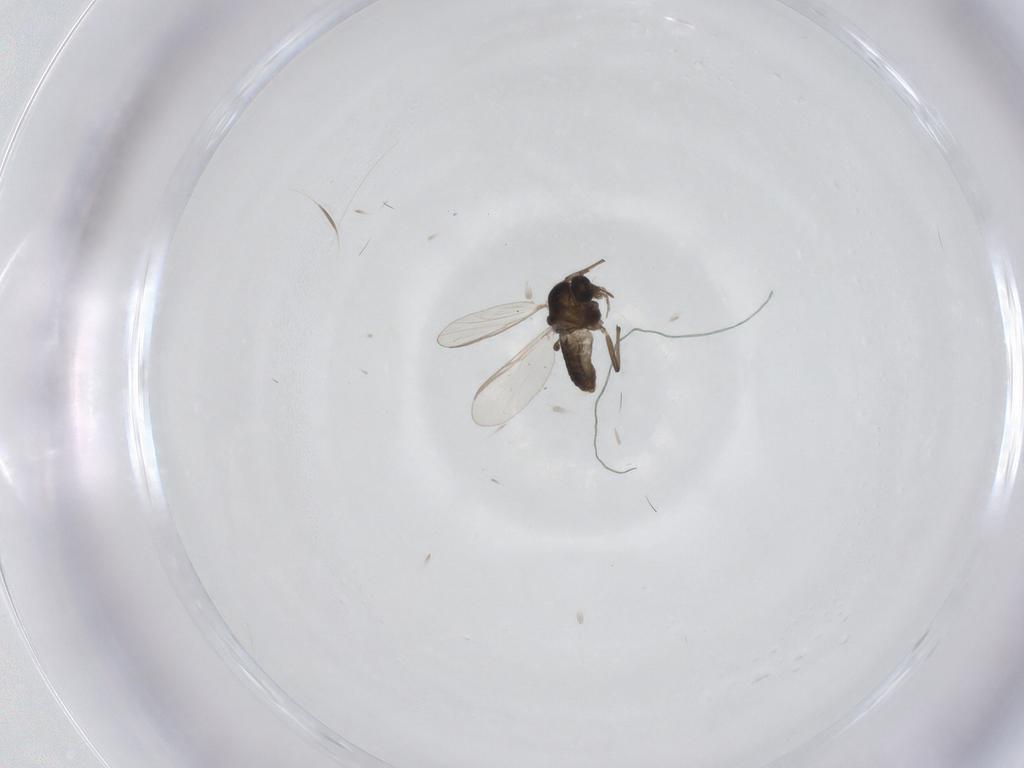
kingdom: Animalia
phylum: Arthropoda
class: Insecta
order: Diptera
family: Chironomidae
